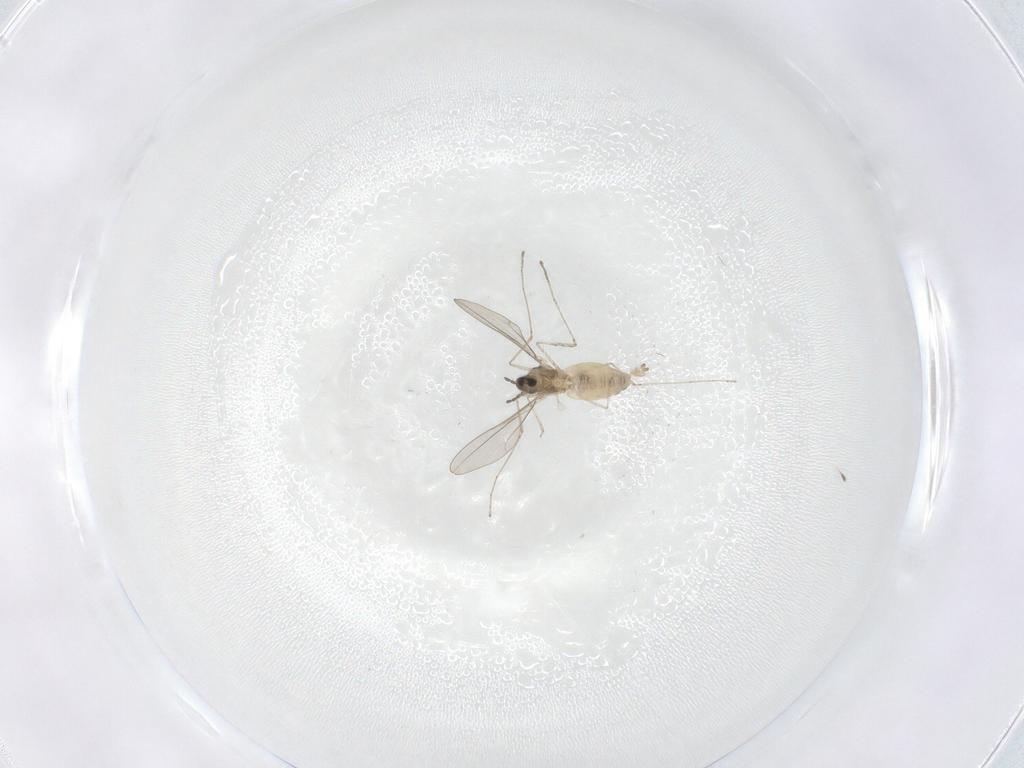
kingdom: Animalia
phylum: Arthropoda
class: Insecta
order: Diptera
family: Cecidomyiidae
